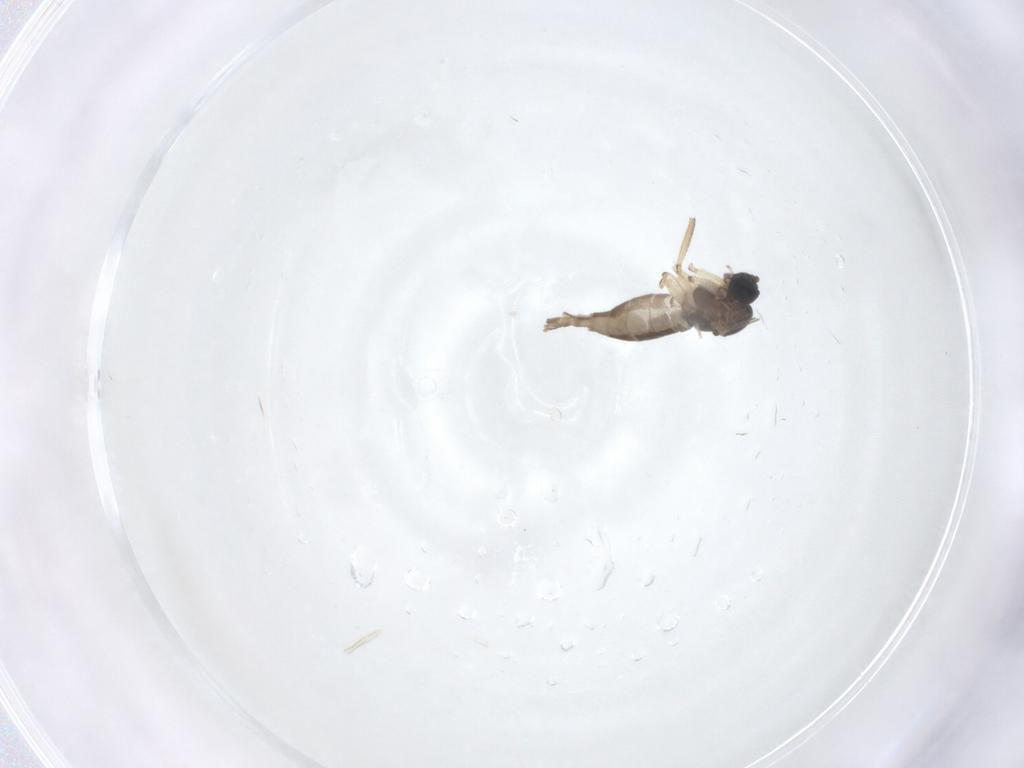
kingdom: Animalia
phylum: Arthropoda
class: Insecta
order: Diptera
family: Sciaridae
